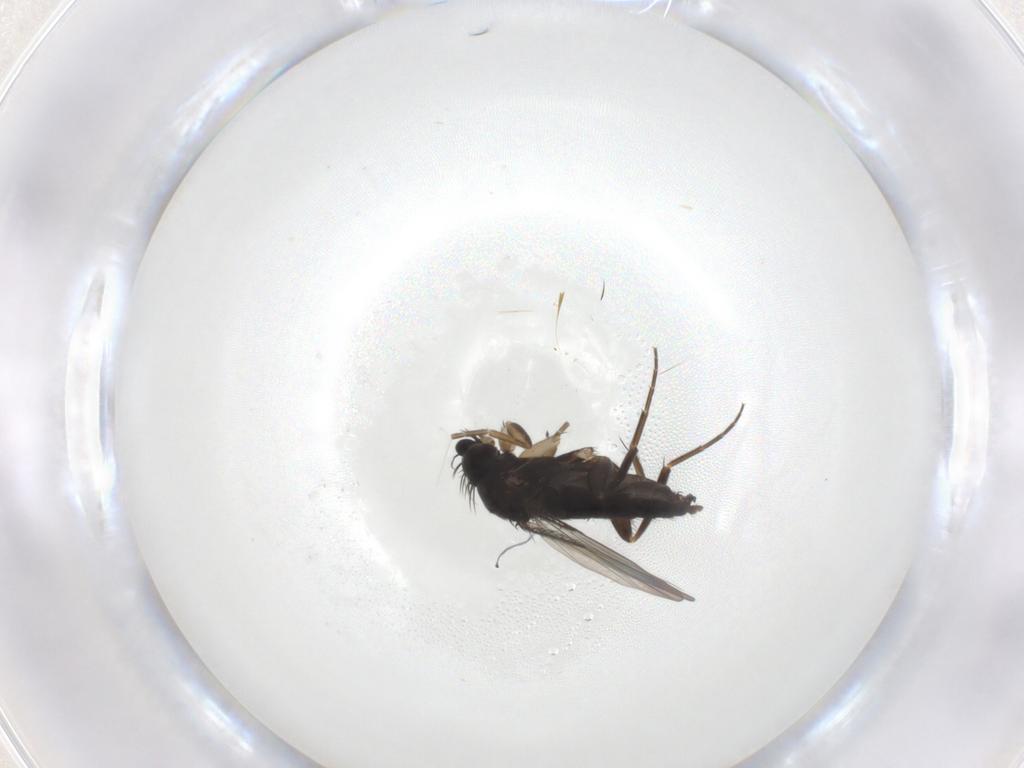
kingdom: Animalia
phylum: Arthropoda
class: Insecta
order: Diptera
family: Phoridae
